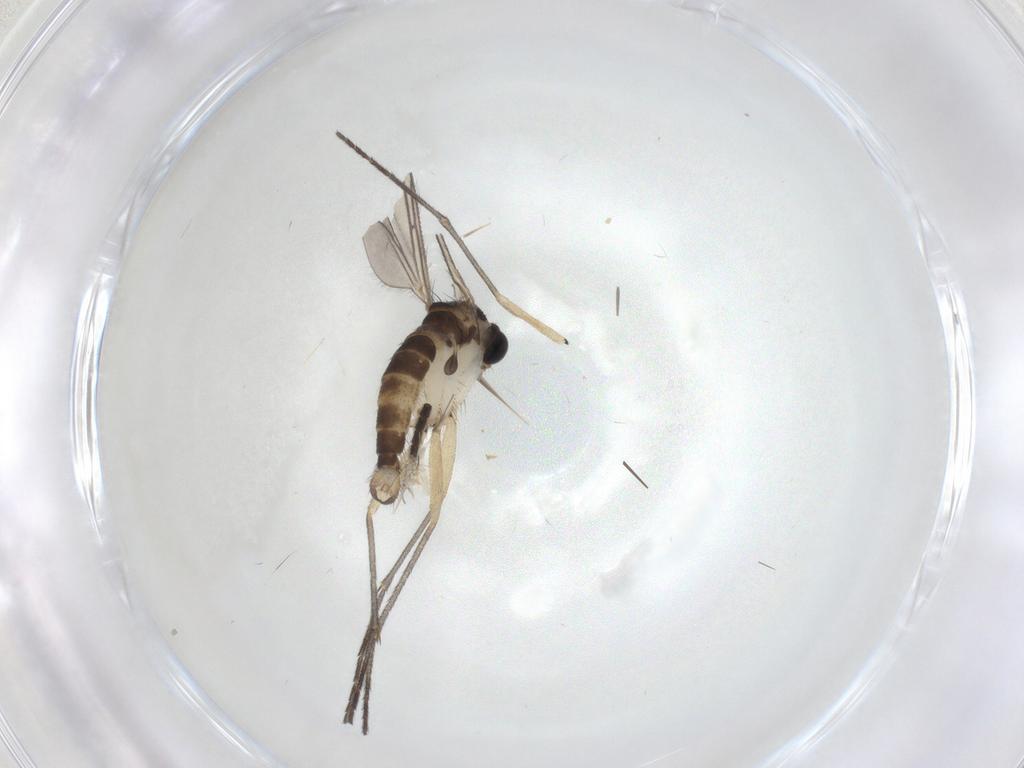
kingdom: Animalia
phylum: Arthropoda
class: Insecta
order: Diptera
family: Sciaridae
